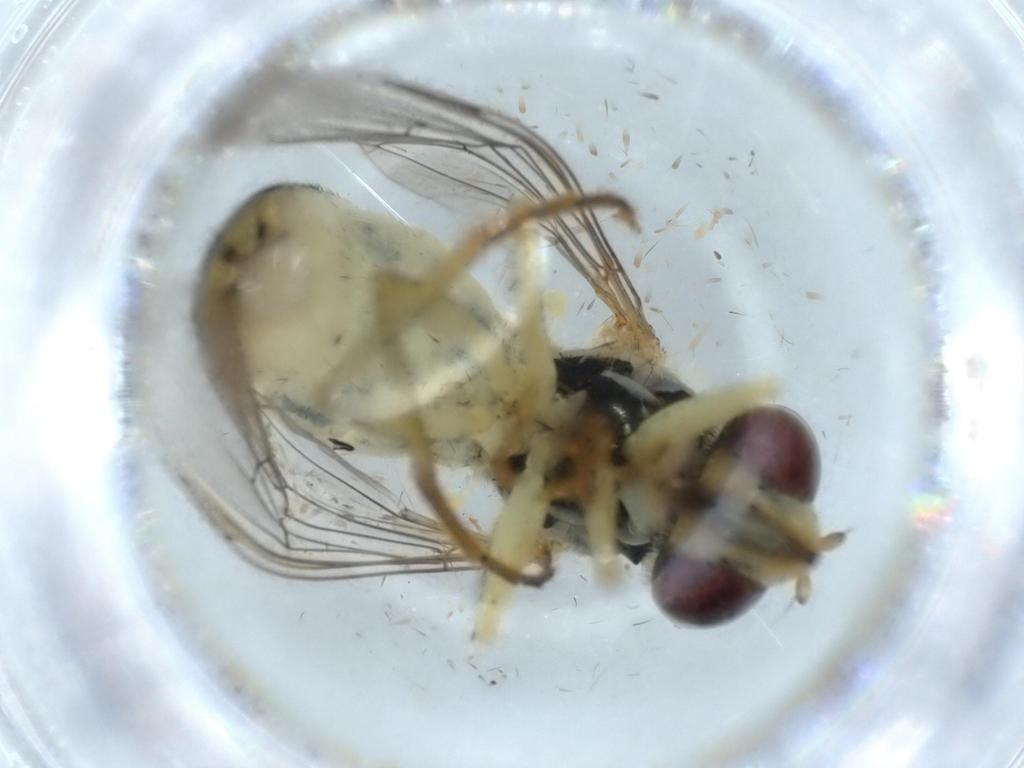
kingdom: Animalia
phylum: Arthropoda
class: Insecta
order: Diptera
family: Syrphidae
